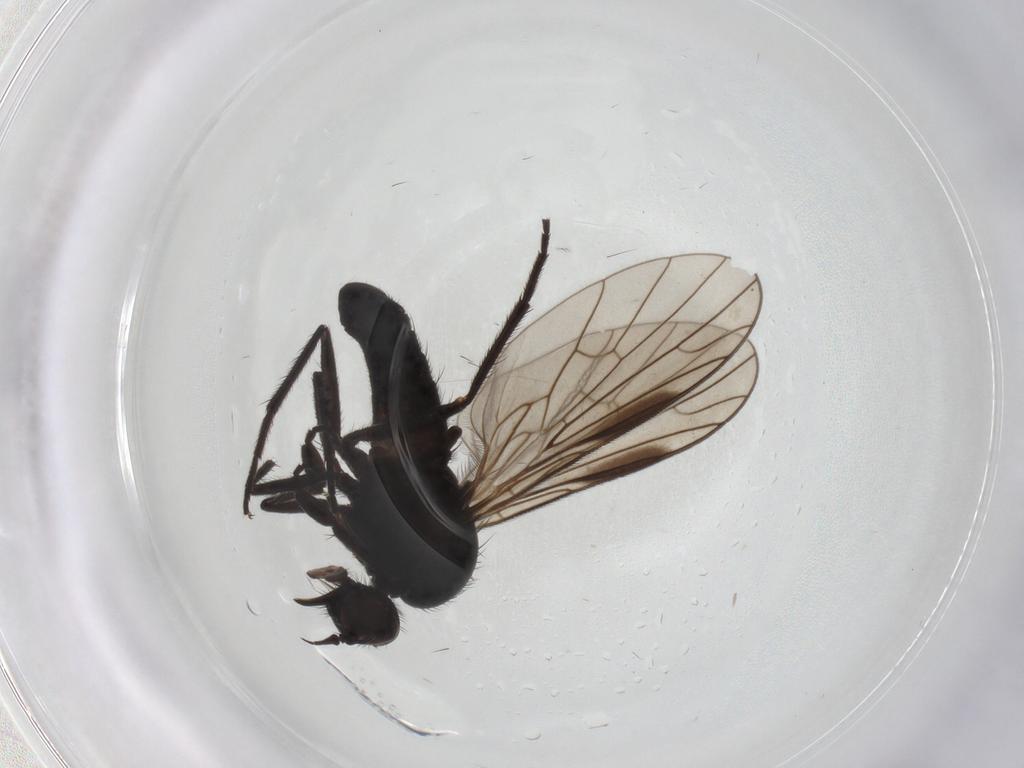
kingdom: Animalia
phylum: Arthropoda
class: Insecta
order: Diptera
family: Empididae
